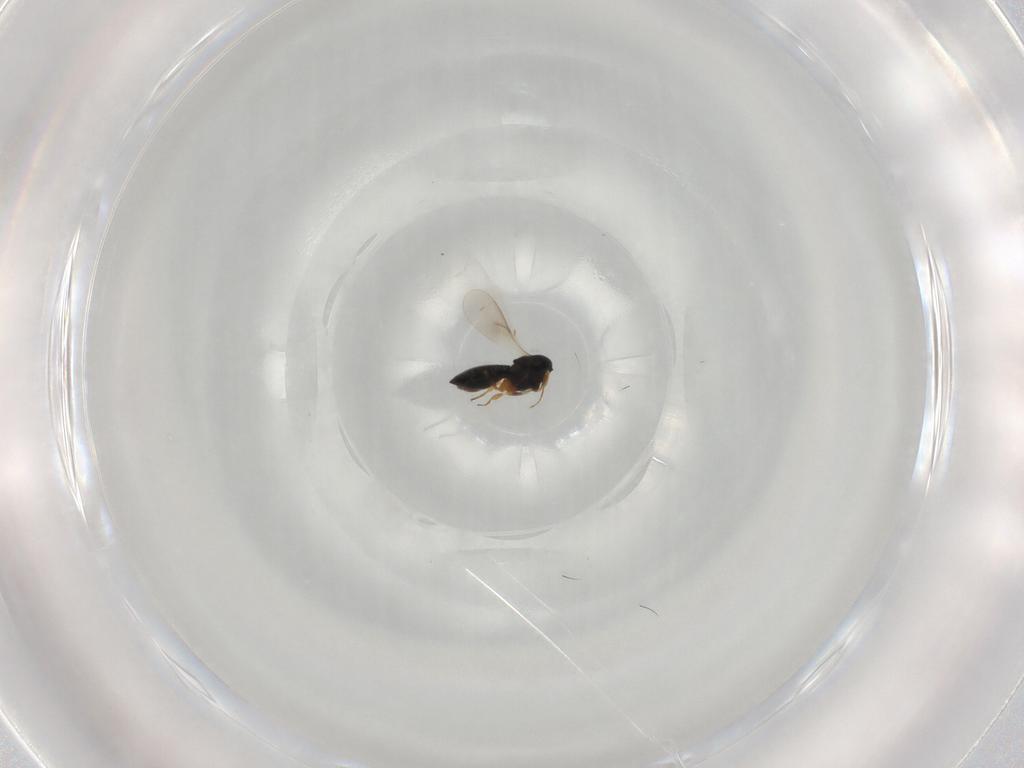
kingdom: Animalia
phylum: Arthropoda
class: Insecta
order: Hymenoptera
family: Scelionidae
